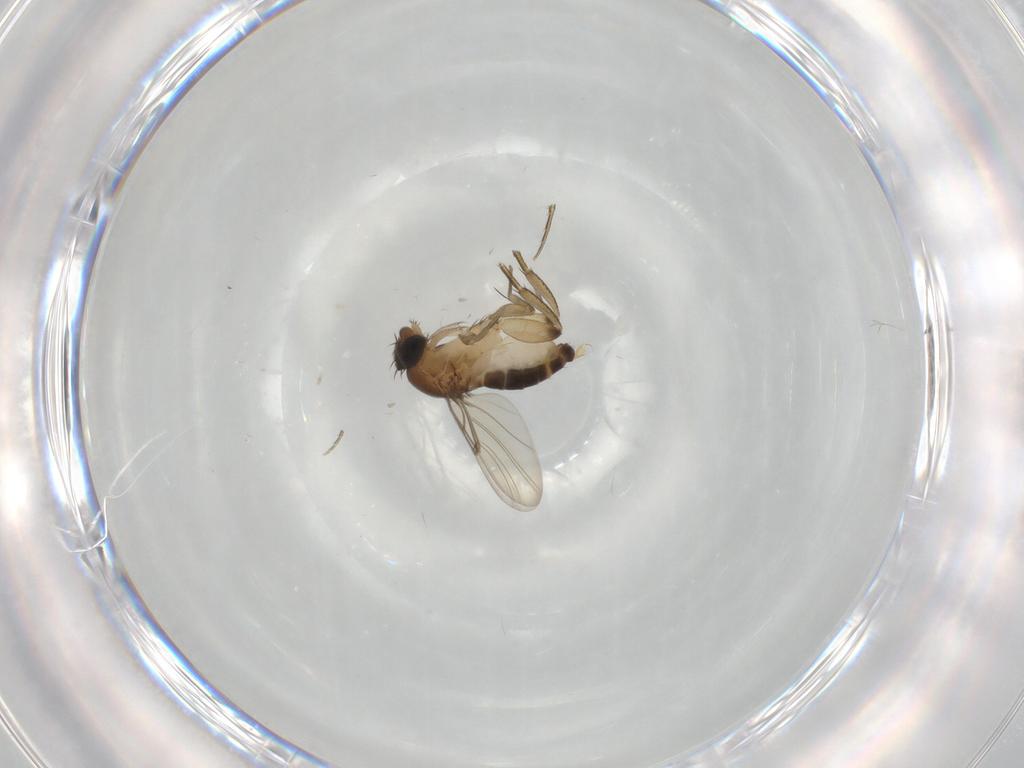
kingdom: Animalia
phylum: Arthropoda
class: Insecta
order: Diptera
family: Phoridae
